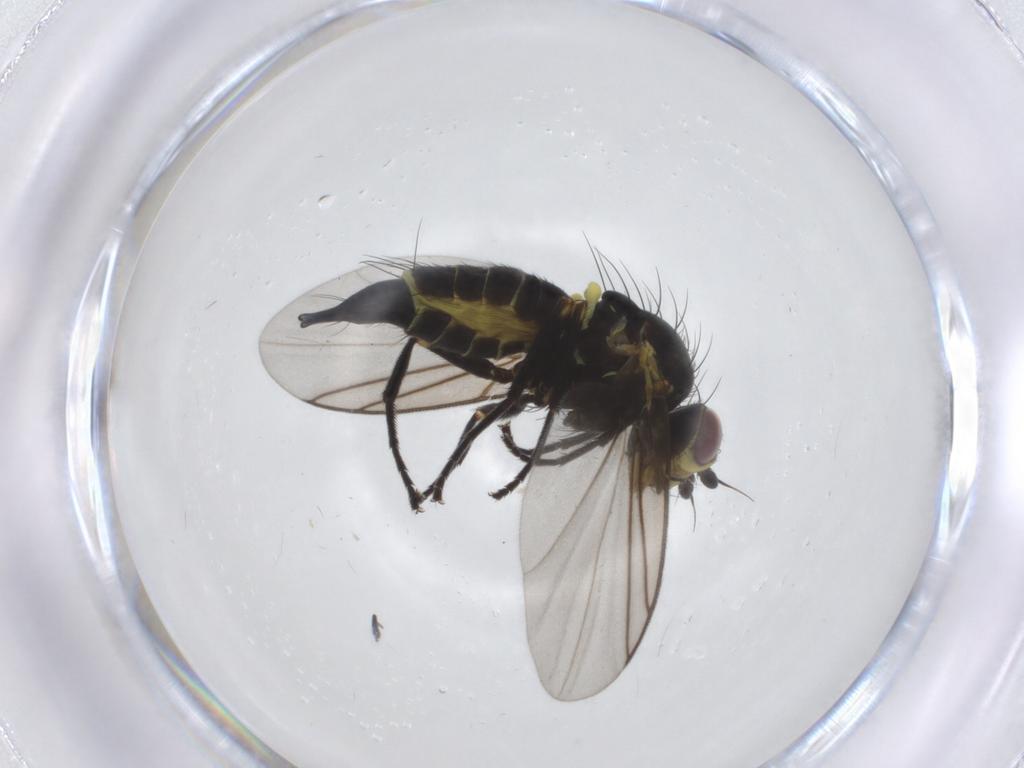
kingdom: Animalia
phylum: Arthropoda
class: Insecta
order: Diptera
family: Agromyzidae
